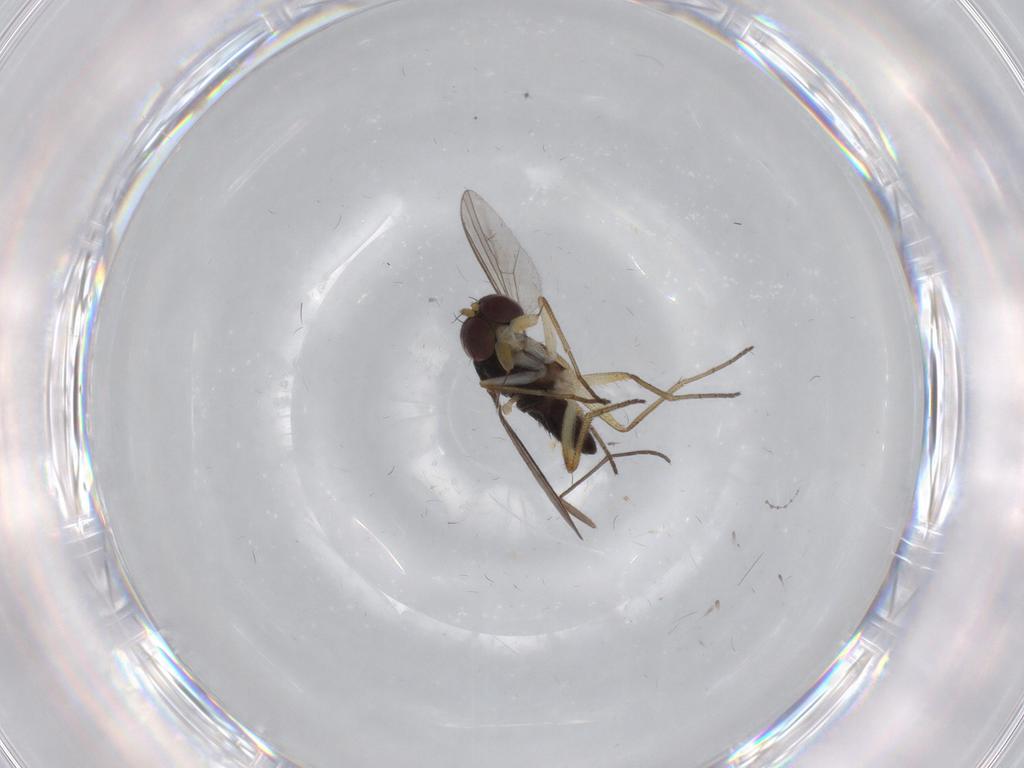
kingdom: Animalia
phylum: Arthropoda
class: Insecta
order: Diptera
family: Dolichopodidae
